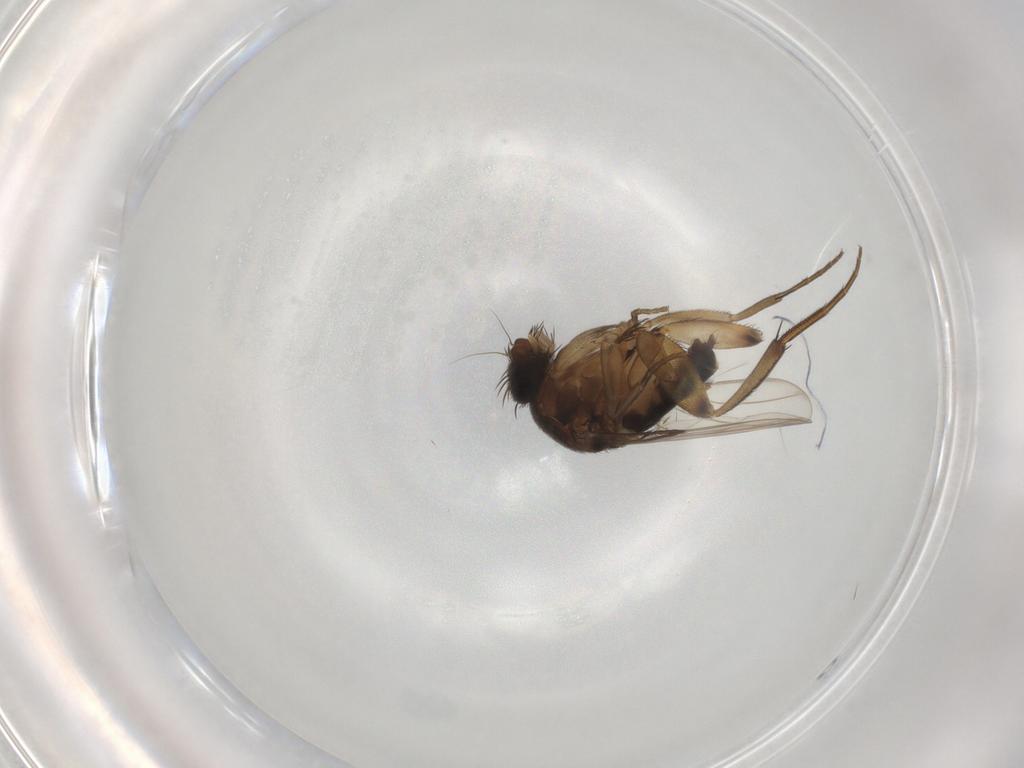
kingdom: Animalia
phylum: Arthropoda
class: Insecta
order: Diptera
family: Phoridae
